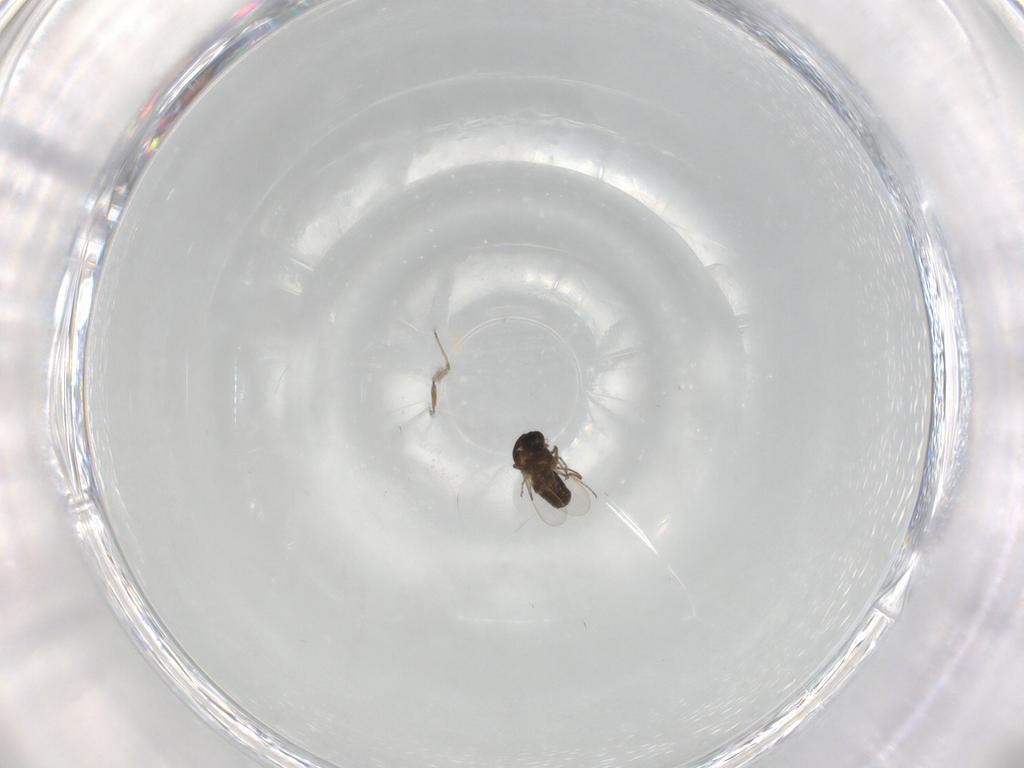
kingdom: Animalia
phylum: Arthropoda
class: Insecta
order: Diptera
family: Ceratopogonidae
